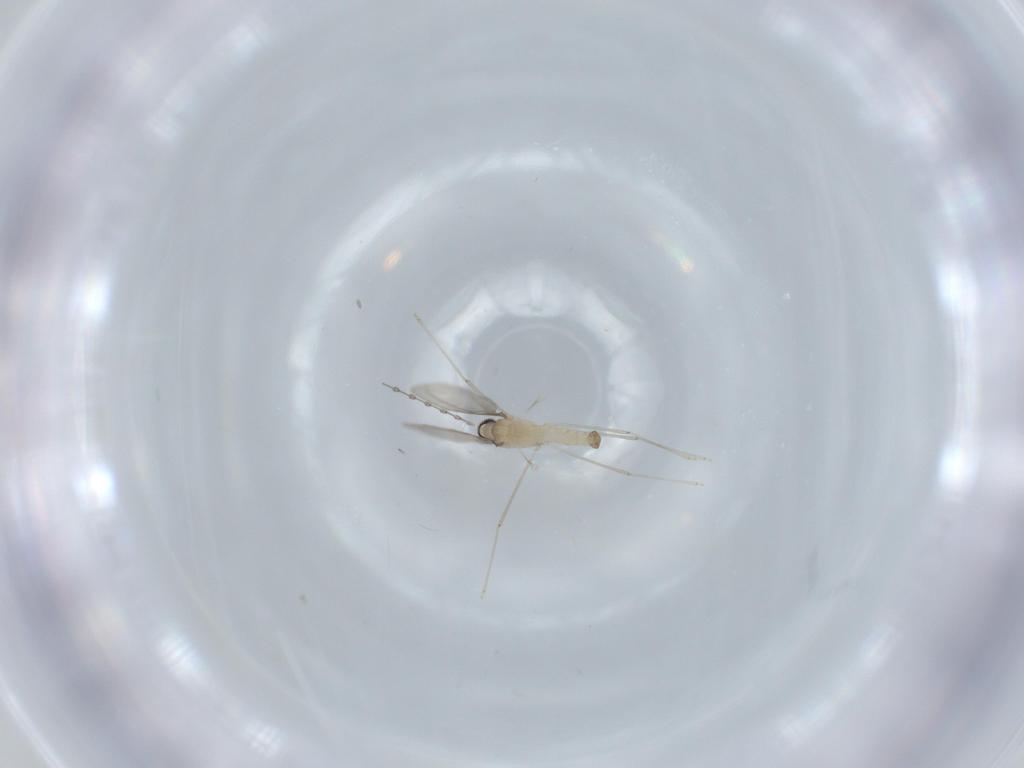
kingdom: Animalia
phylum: Arthropoda
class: Insecta
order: Diptera
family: Cecidomyiidae
